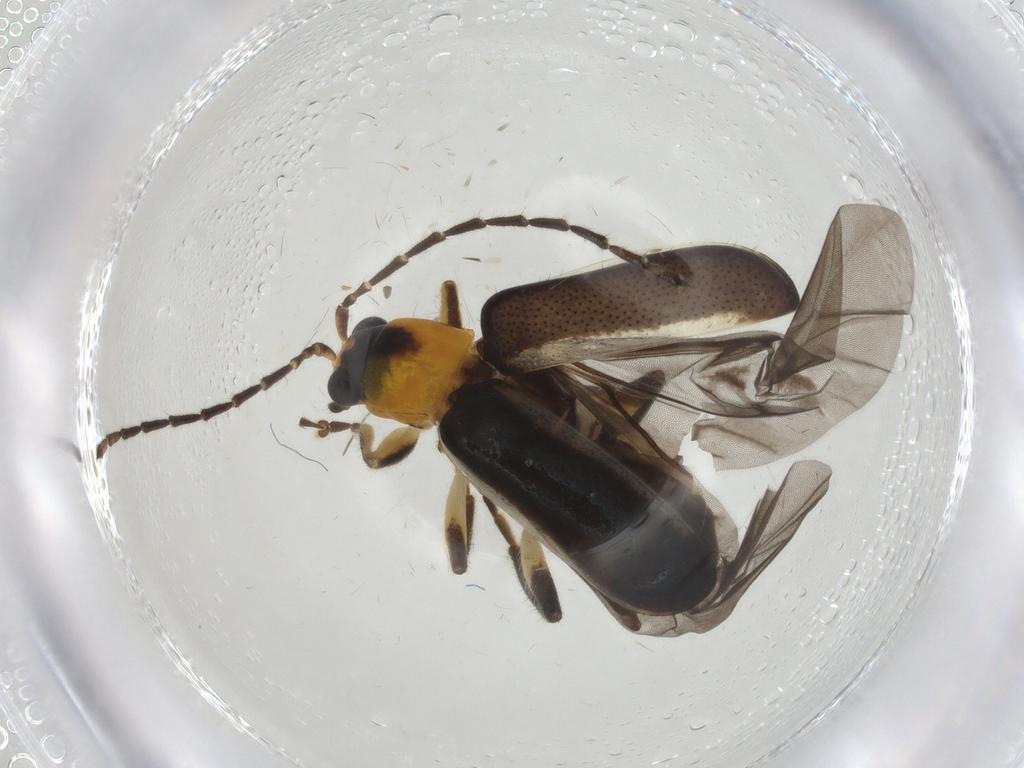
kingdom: Animalia
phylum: Arthropoda
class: Insecta
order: Coleoptera
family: Chrysomelidae
